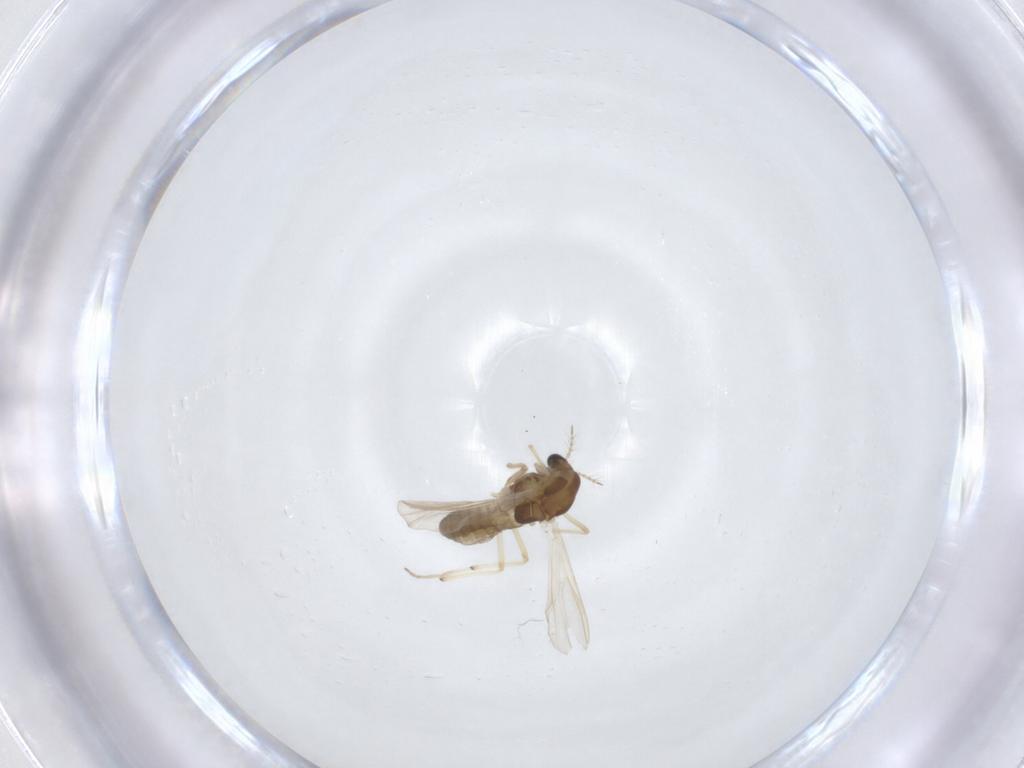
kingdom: Animalia
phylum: Arthropoda
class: Insecta
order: Diptera
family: Chironomidae
